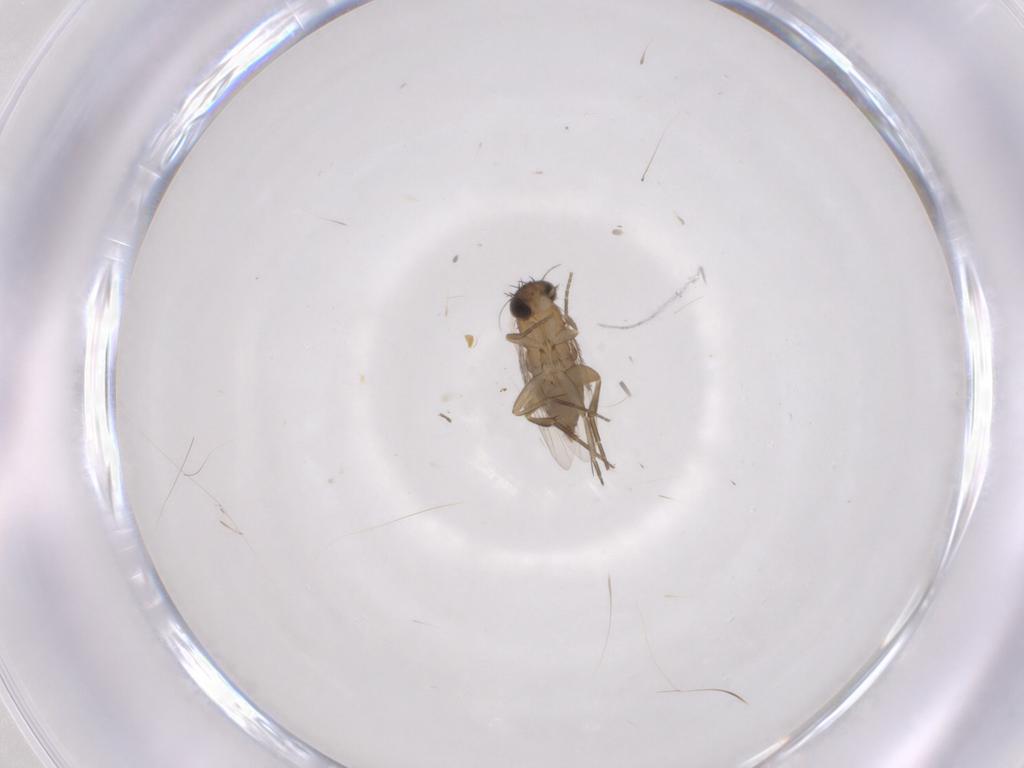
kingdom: Animalia
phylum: Arthropoda
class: Insecta
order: Diptera
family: Phoridae
